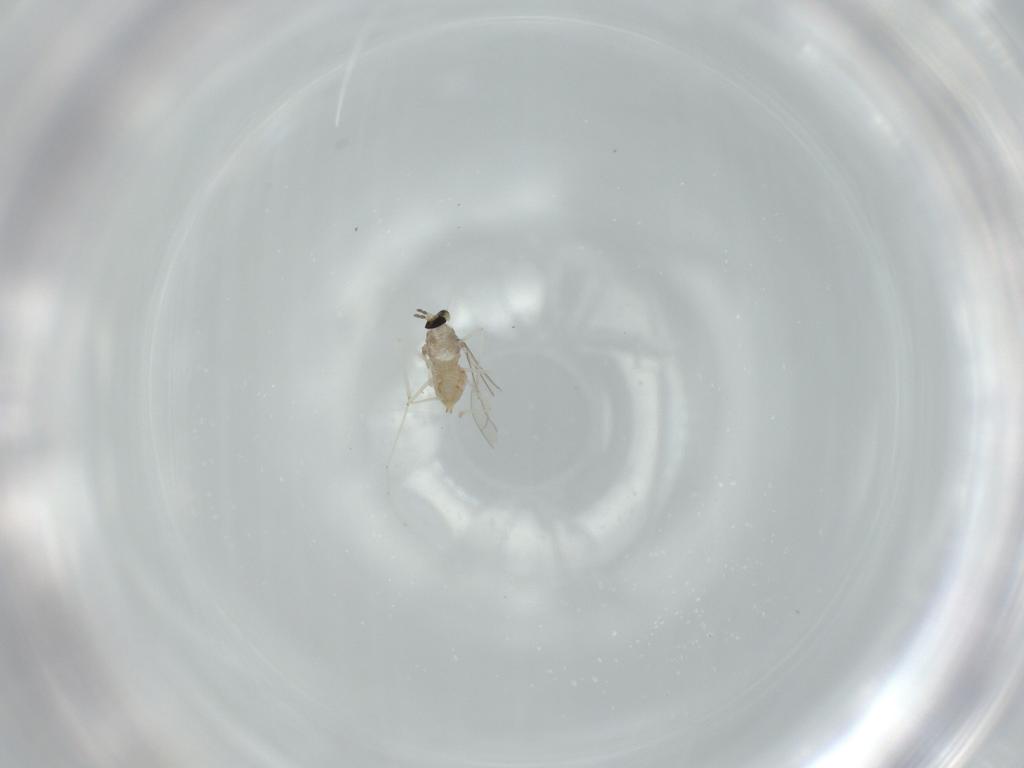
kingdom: Animalia
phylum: Arthropoda
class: Insecta
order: Diptera
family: Cecidomyiidae
